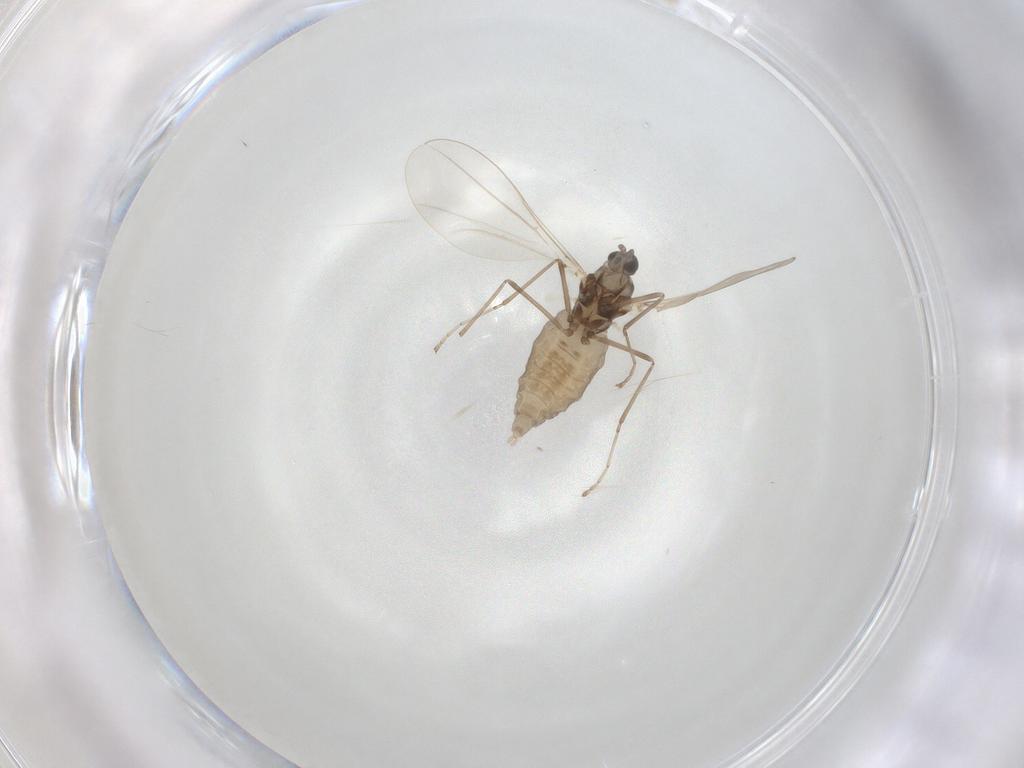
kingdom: Animalia
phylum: Arthropoda
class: Insecta
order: Diptera
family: Cecidomyiidae
